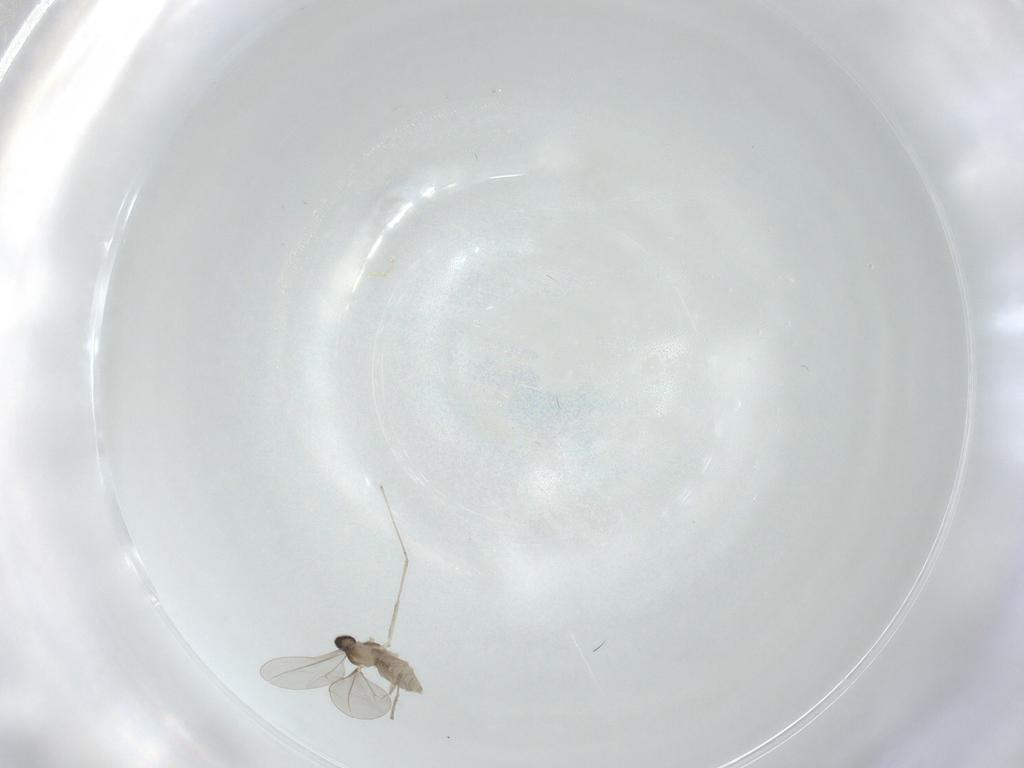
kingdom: Animalia
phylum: Arthropoda
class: Insecta
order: Diptera
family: Cecidomyiidae
